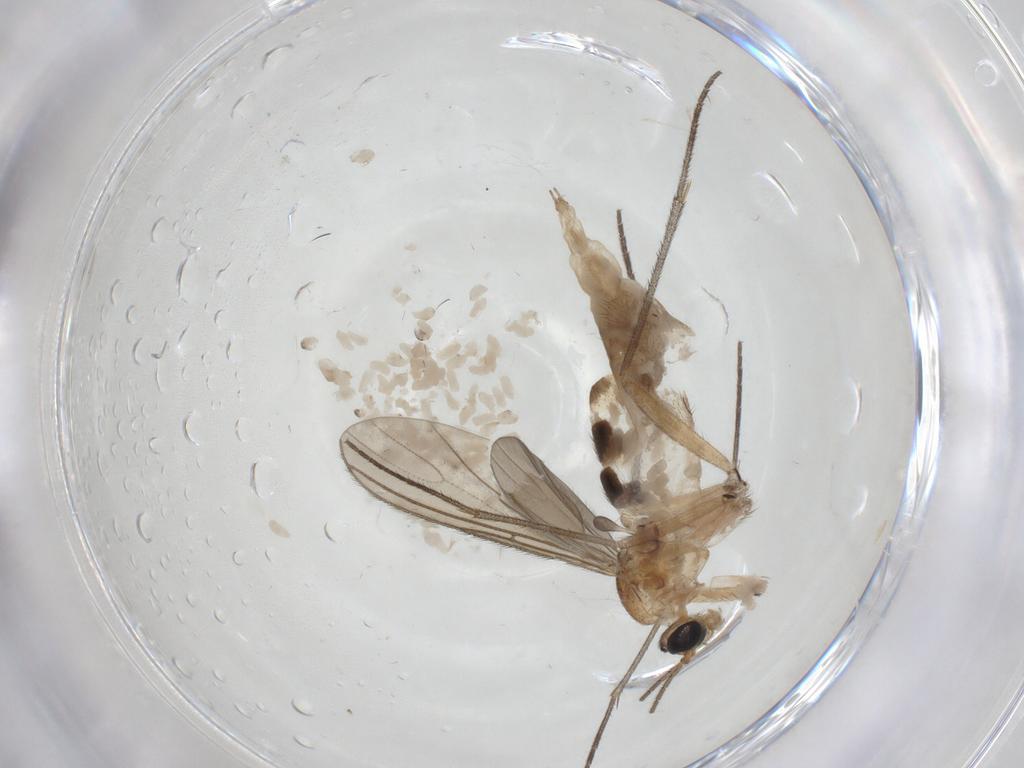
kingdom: Animalia
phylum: Arthropoda
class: Insecta
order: Diptera
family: Sciaridae
